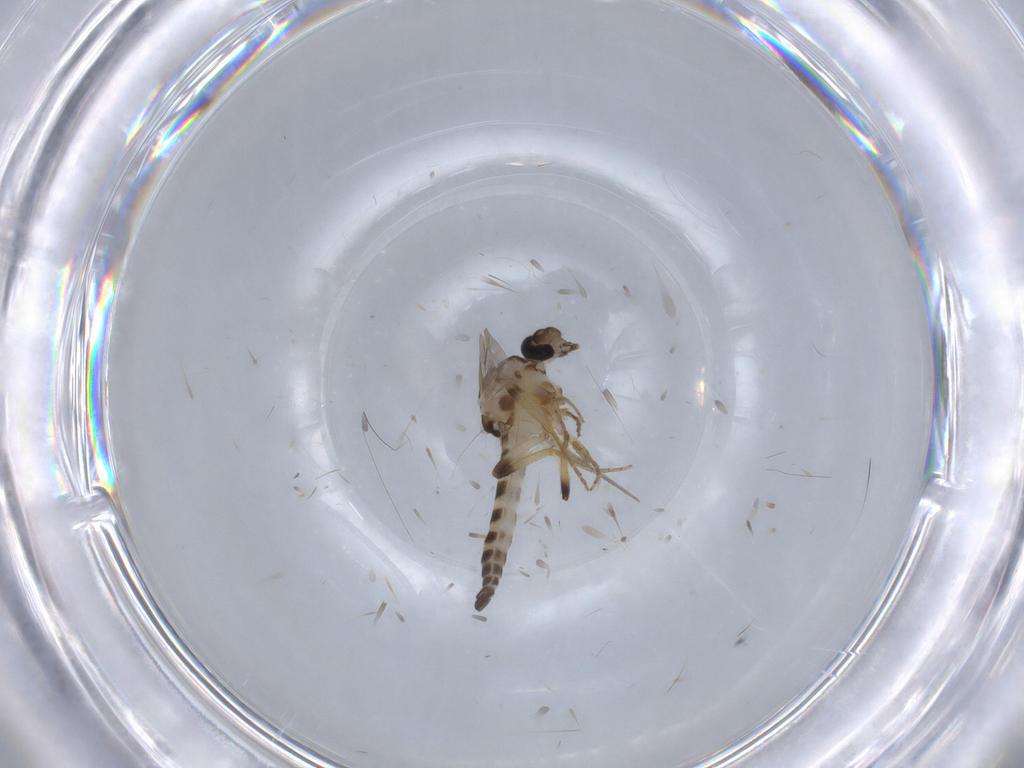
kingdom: Animalia
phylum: Arthropoda
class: Insecta
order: Diptera
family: Ceratopogonidae
